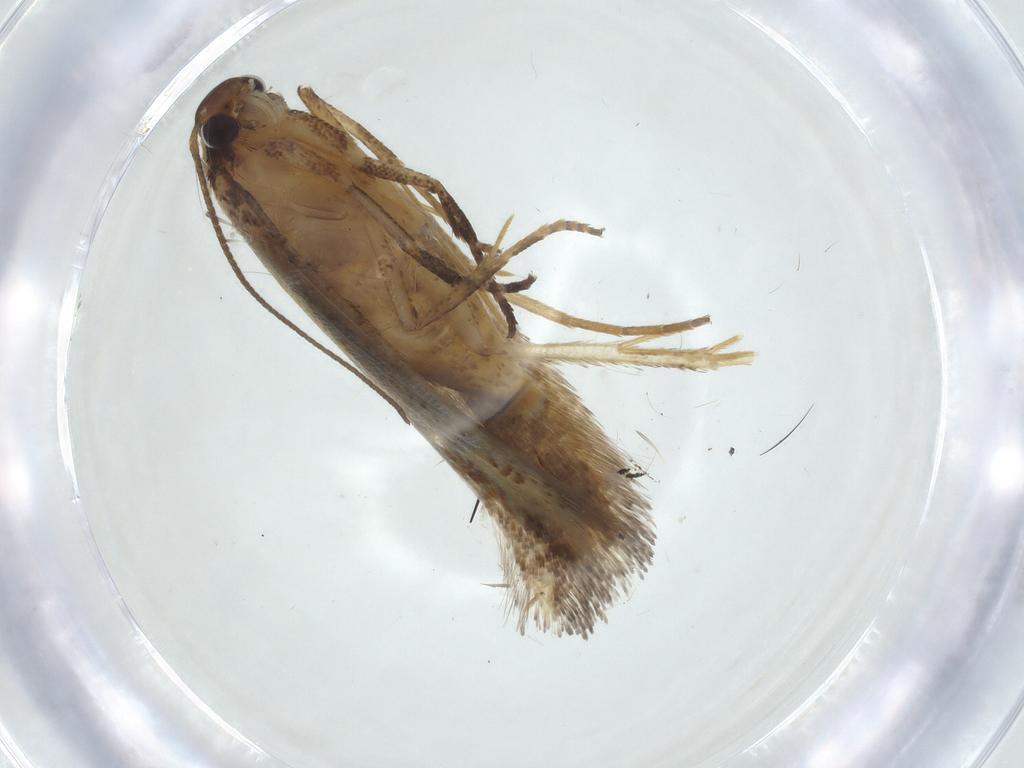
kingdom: Animalia
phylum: Arthropoda
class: Insecta
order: Lepidoptera
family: Gelechiidae
